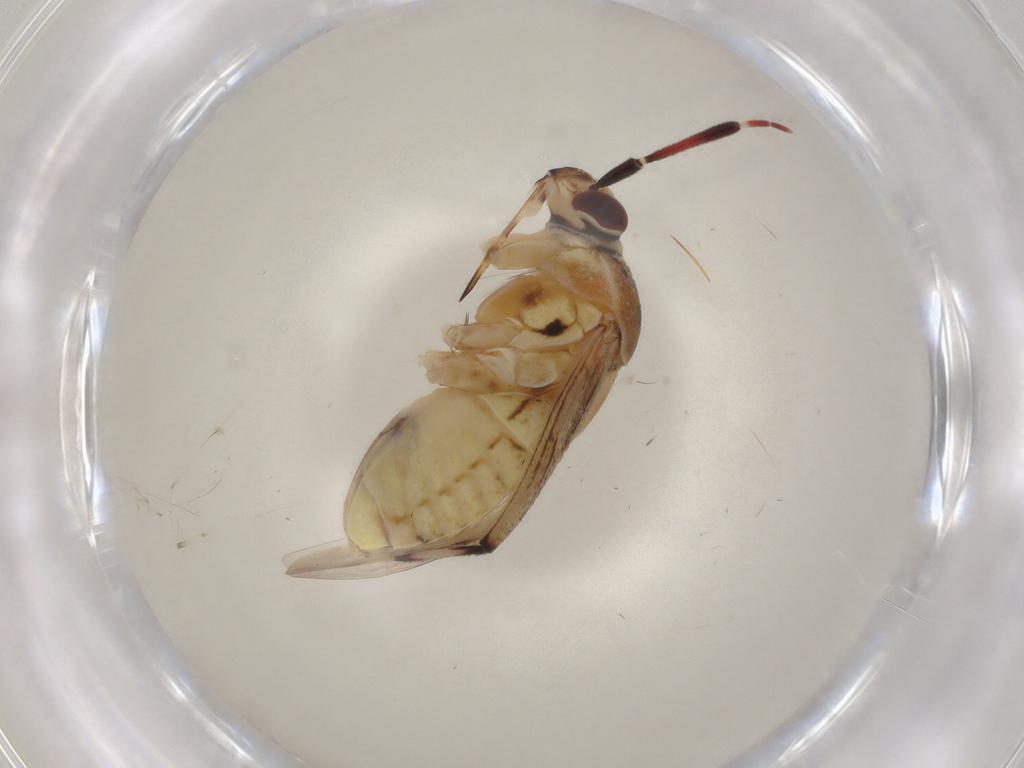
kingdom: Animalia
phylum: Arthropoda
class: Insecta
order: Hemiptera
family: Miridae
